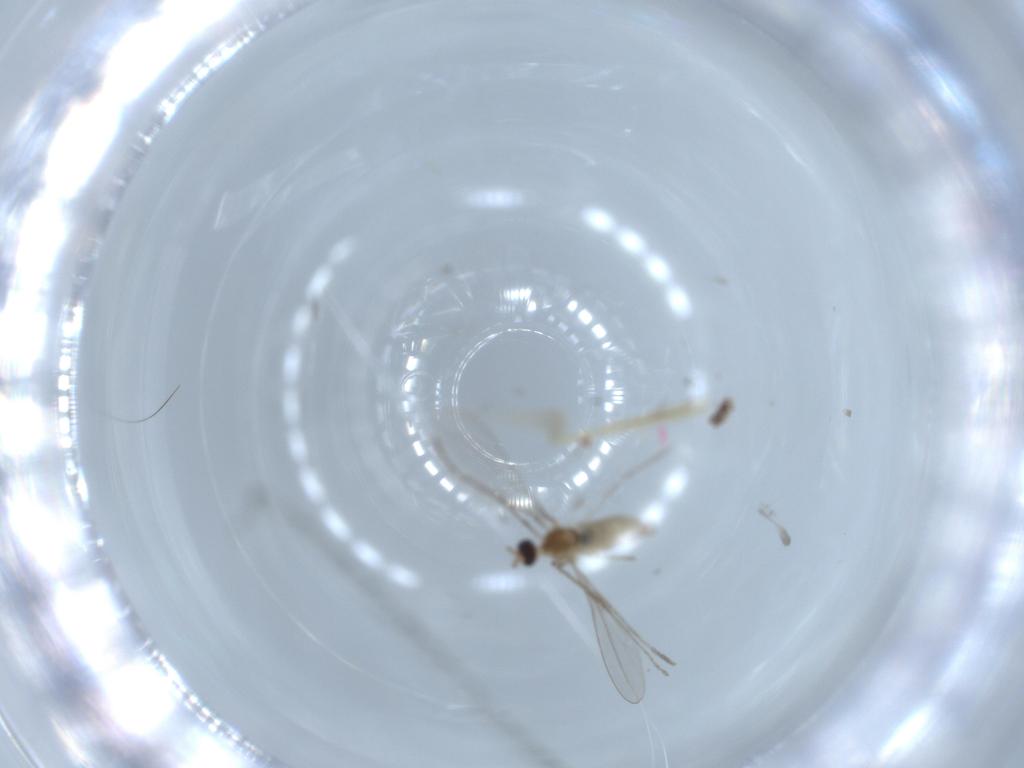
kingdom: Animalia
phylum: Arthropoda
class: Insecta
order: Diptera
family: Cecidomyiidae
